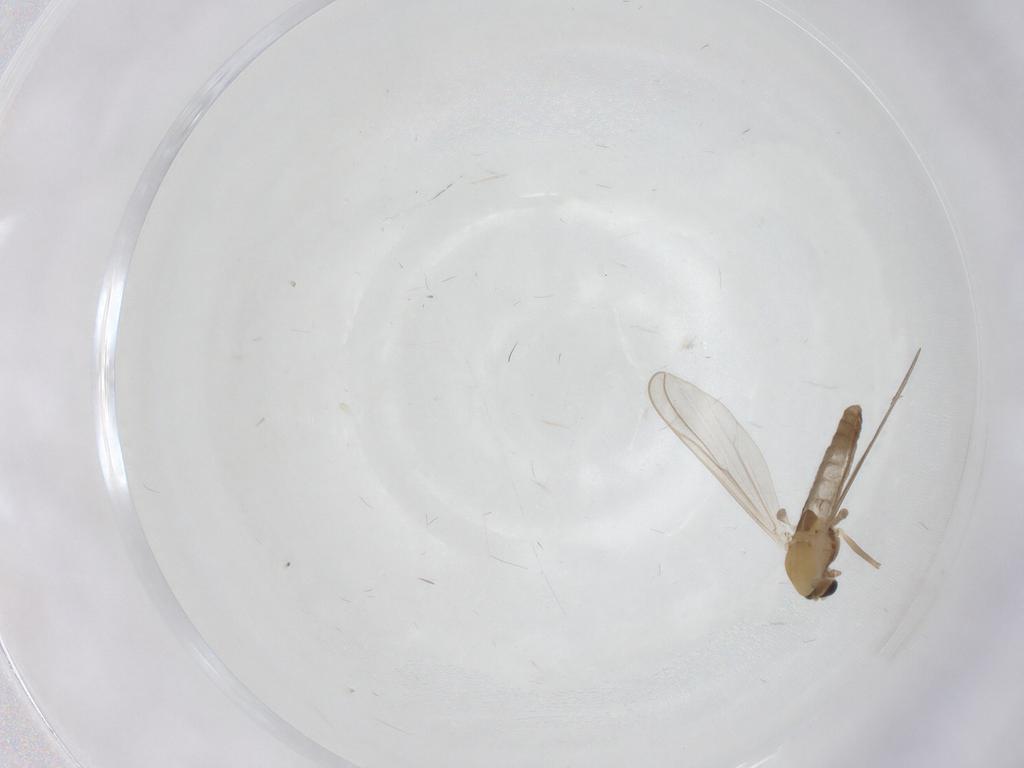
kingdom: Animalia
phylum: Arthropoda
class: Insecta
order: Diptera
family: Chironomidae
